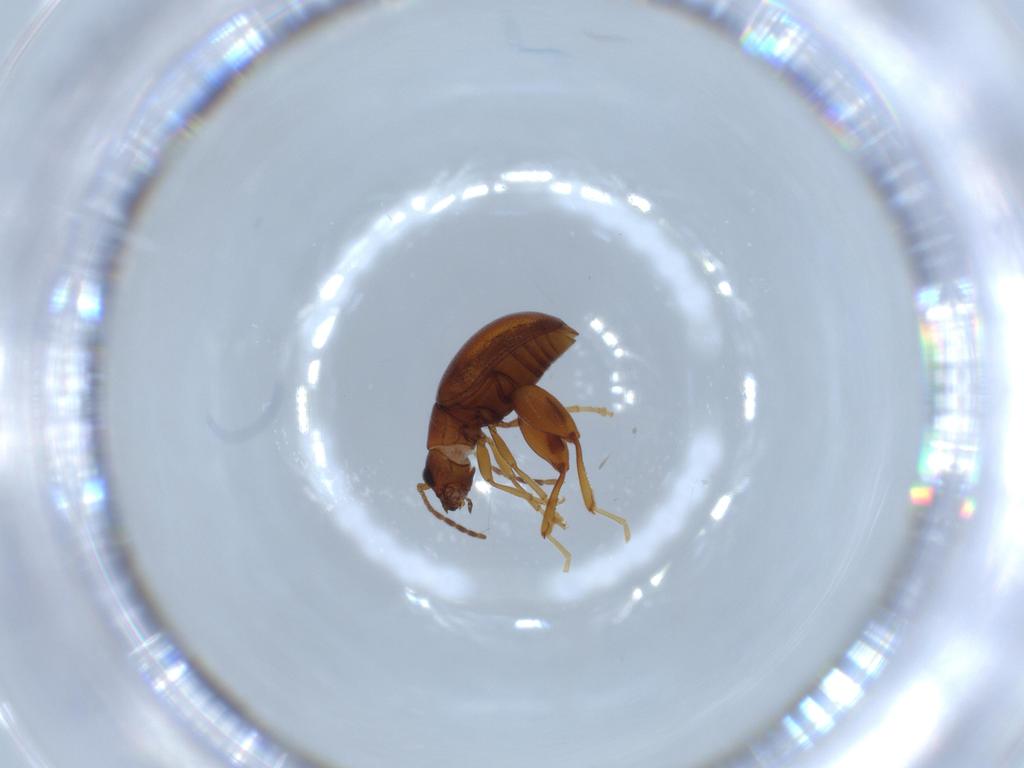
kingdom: Animalia
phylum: Arthropoda
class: Insecta
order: Coleoptera
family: Chrysomelidae
